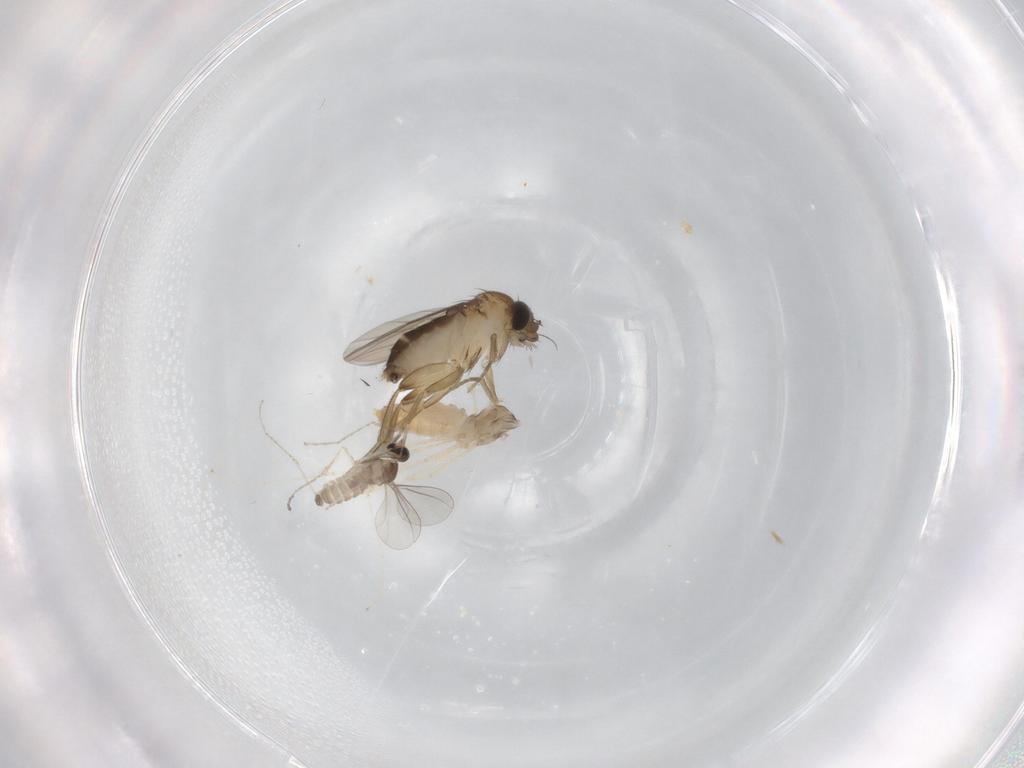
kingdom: Animalia
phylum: Arthropoda
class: Insecta
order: Diptera
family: Cecidomyiidae
